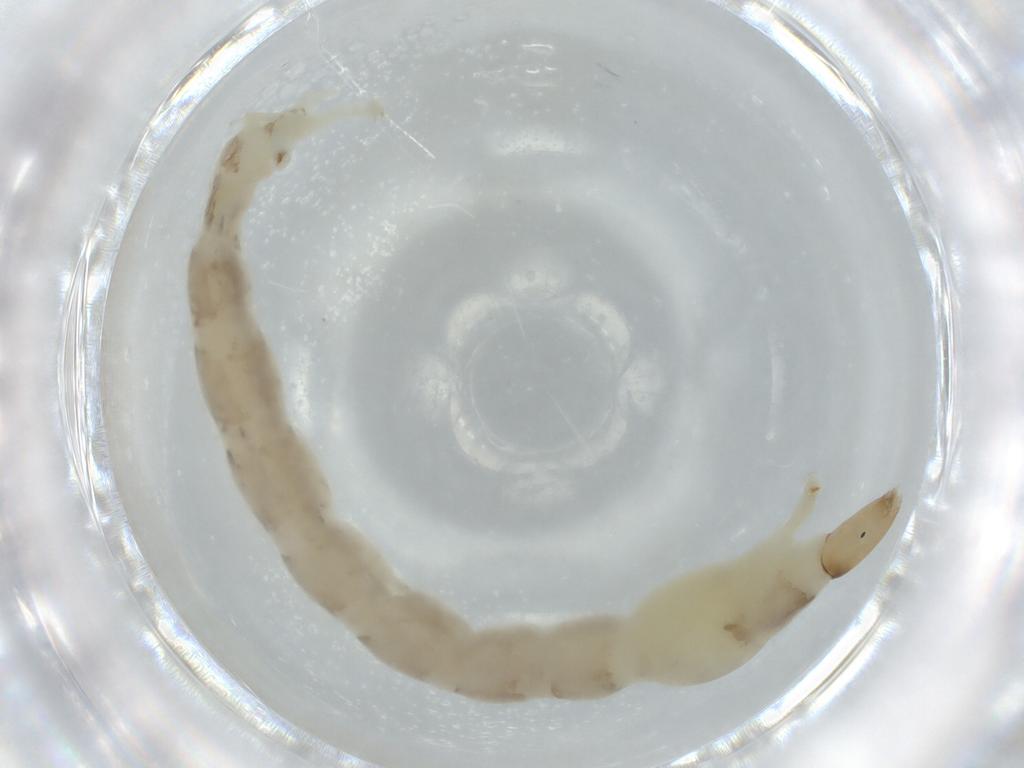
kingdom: Animalia
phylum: Arthropoda
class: Insecta
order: Diptera
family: Chironomidae
